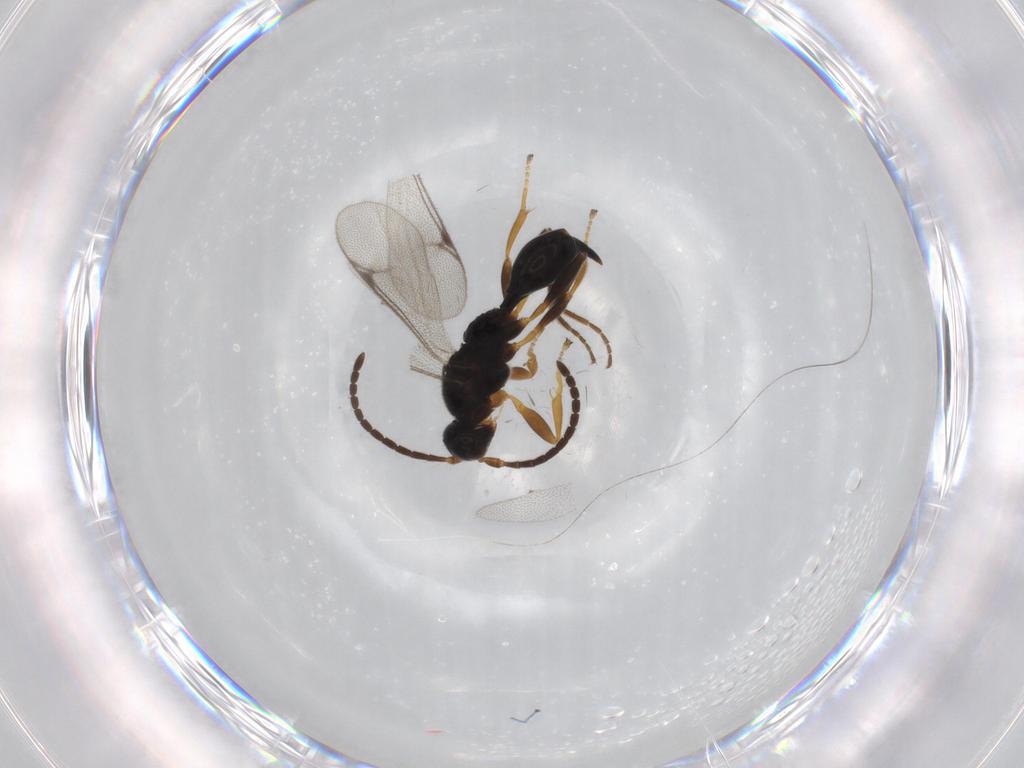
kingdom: Animalia
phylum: Arthropoda
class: Insecta
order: Hymenoptera
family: Proctotrupidae
